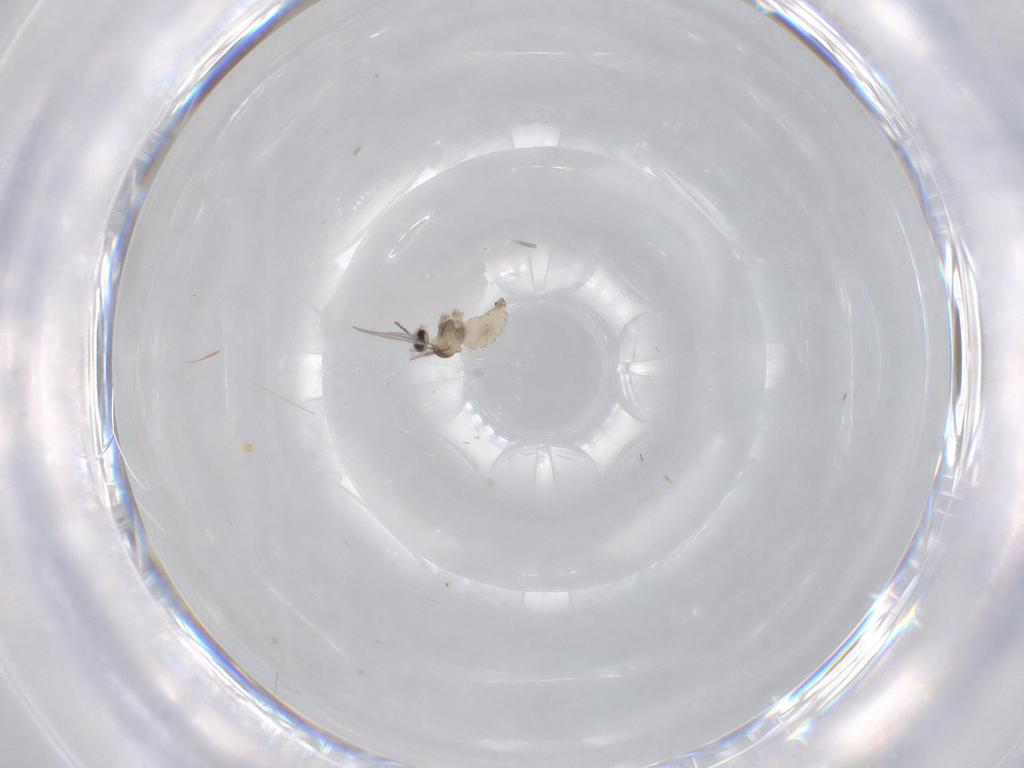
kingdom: Animalia
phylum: Arthropoda
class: Insecta
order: Diptera
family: Cecidomyiidae
